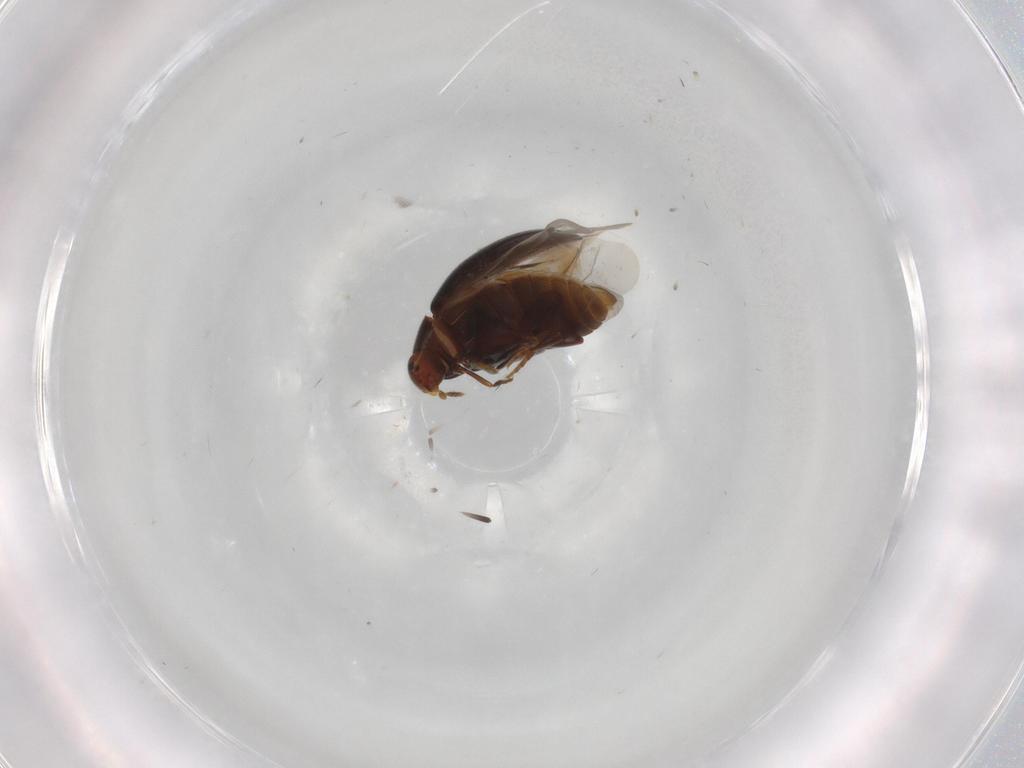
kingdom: Animalia
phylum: Arthropoda
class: Insecta
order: Coleoptera
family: Melandryidae
